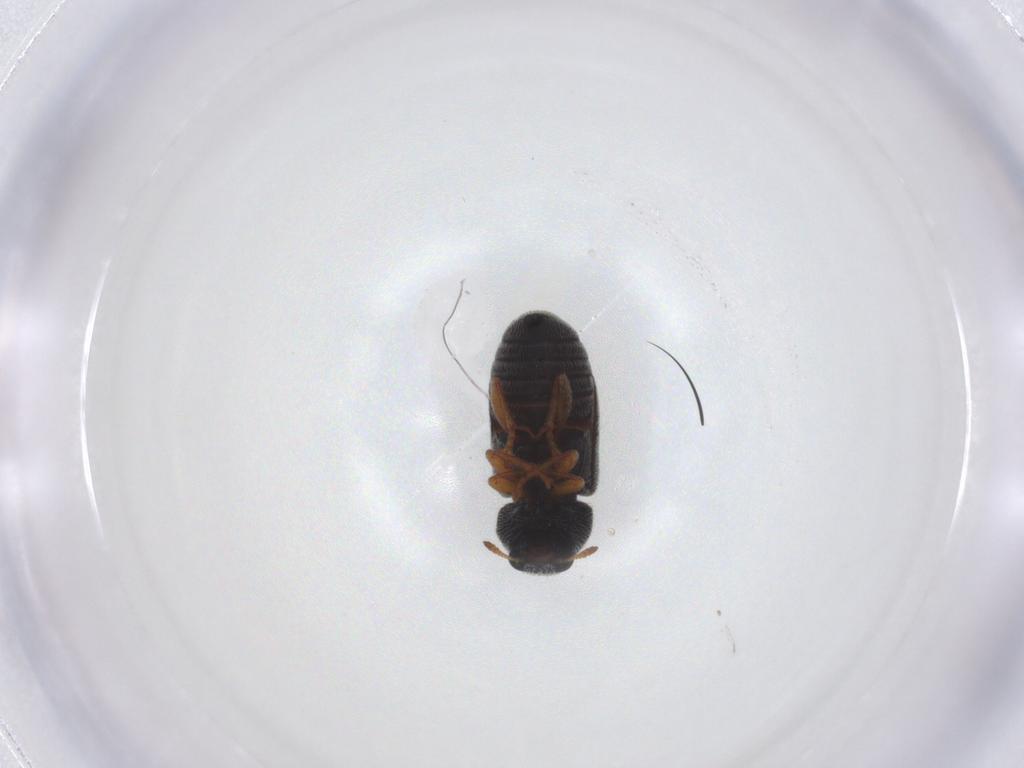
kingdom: Animalia
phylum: Arthropoda
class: Insecta
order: Coleoptera
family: Anthribidae
